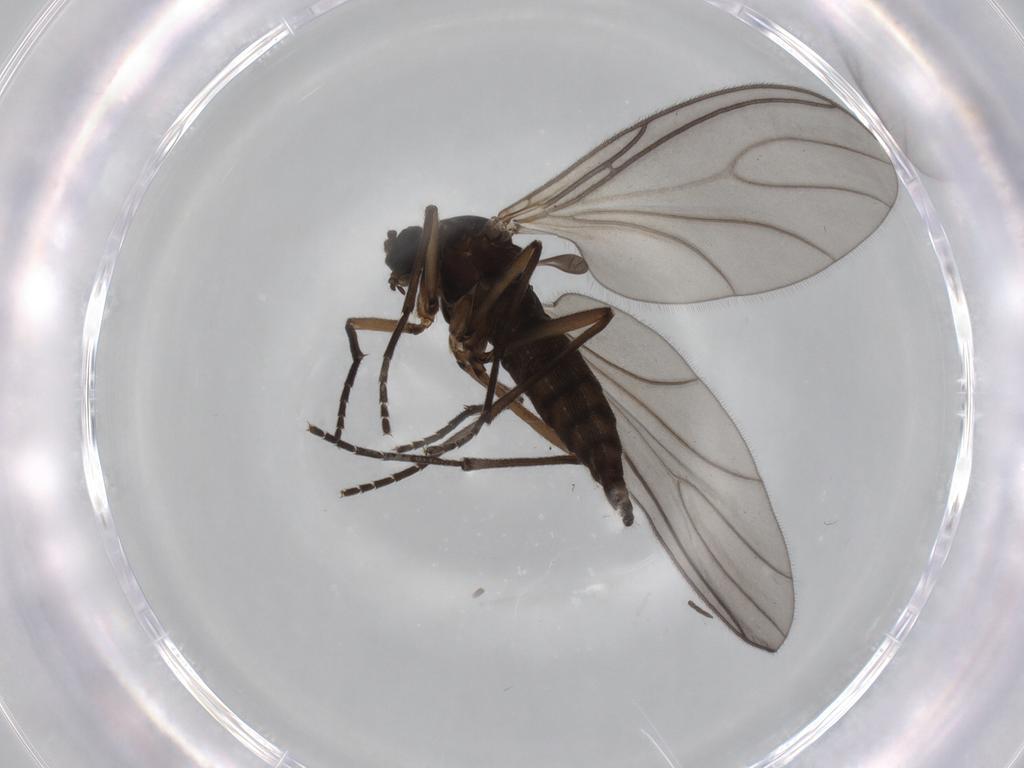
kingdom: Animalia
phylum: Arthropoda
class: Insecta
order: Diptera
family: Sciaridae
